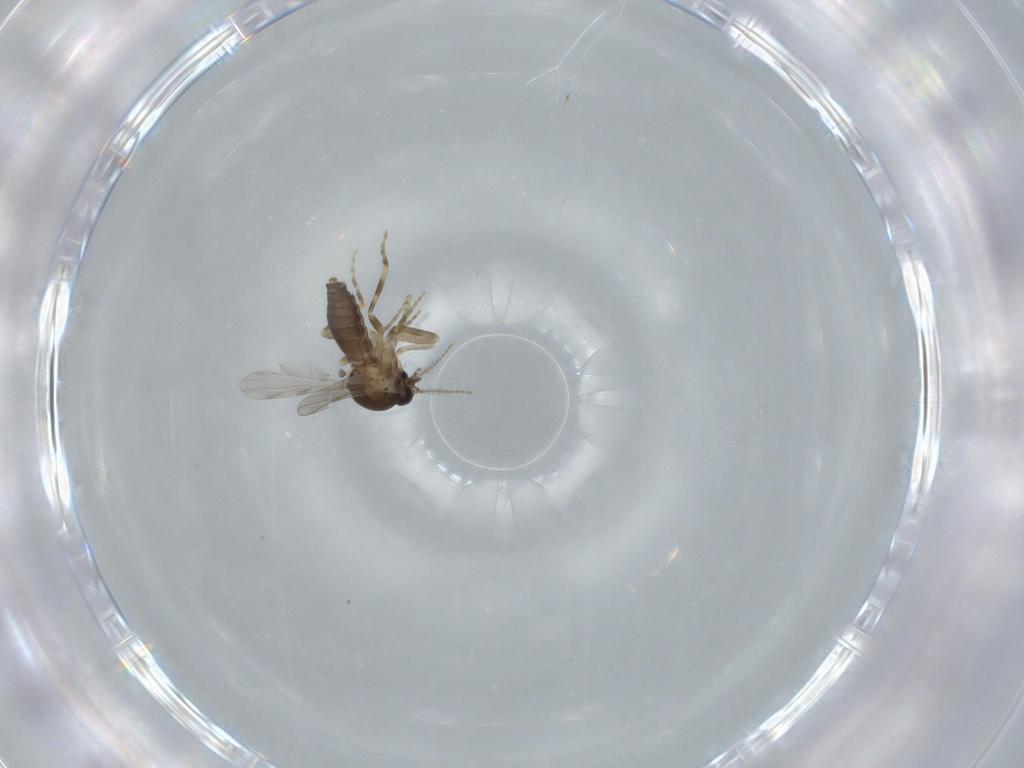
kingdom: Animalia
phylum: Arthropoda
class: Insecta
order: Diptera
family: Ceratopogonidae
